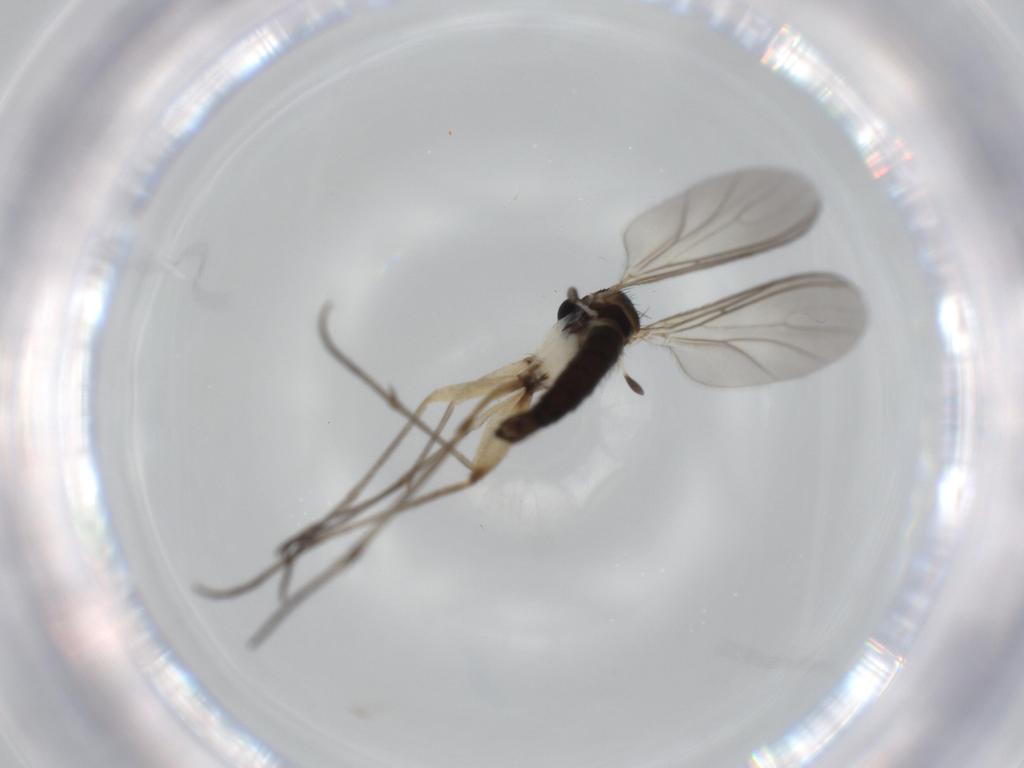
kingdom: Animalia
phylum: Arthropoda
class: Insecta
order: Diptera
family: Sciaridae
